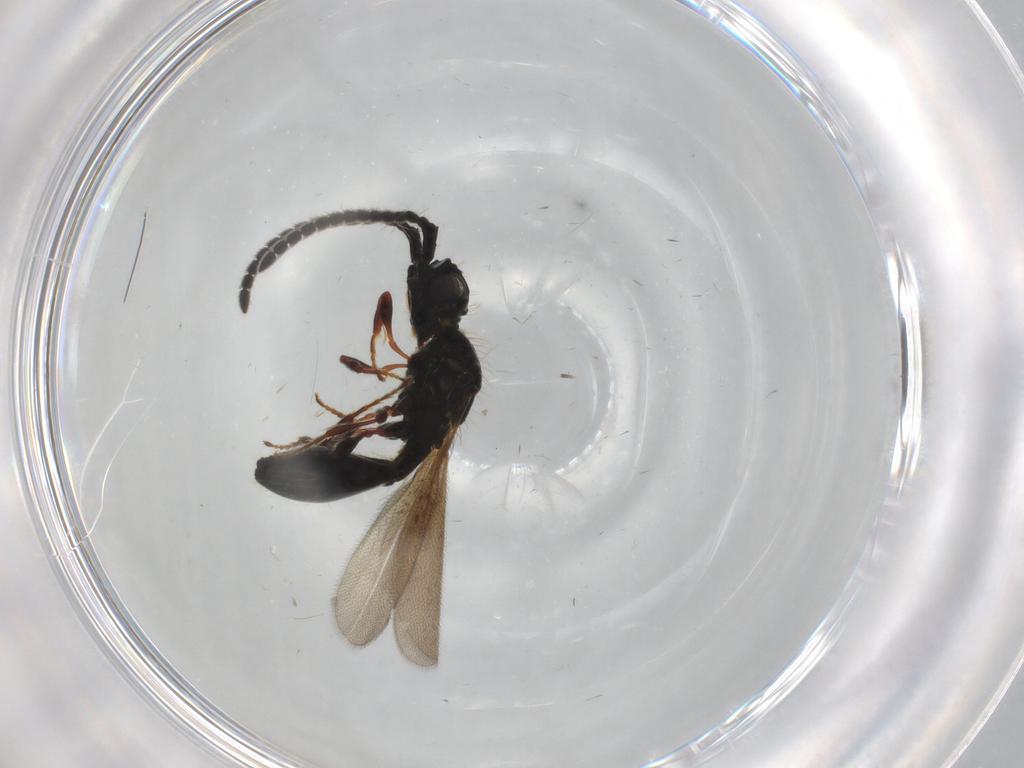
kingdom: Animalia
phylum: Arthropoda
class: Insecta
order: Hymenoptera
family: Diapriidae
